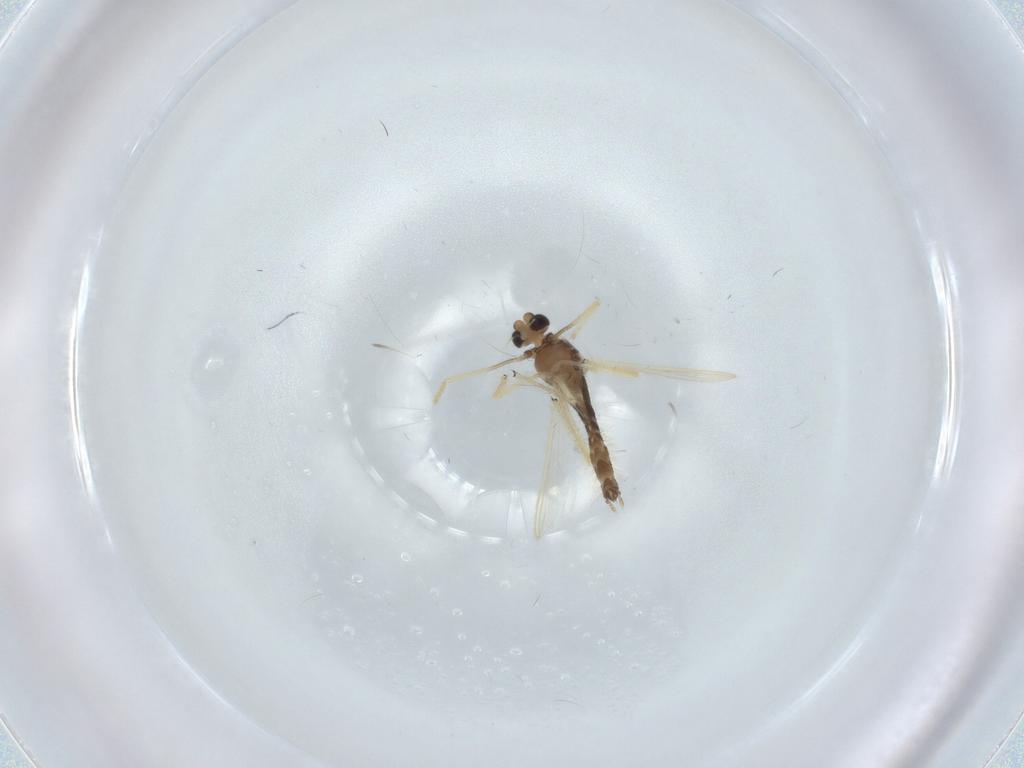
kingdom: Animalia
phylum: Arthropoda
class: Insecta
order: Diptera
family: Chironomidae
